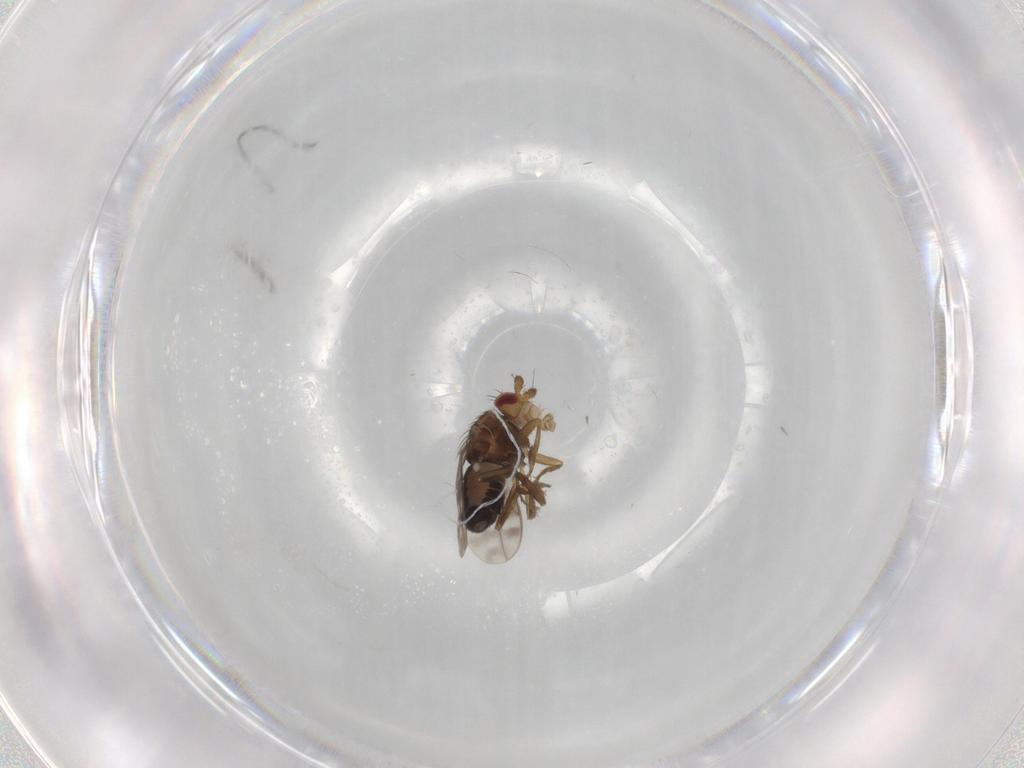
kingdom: Animalia
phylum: Arthropoda
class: Insecta
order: Diptera
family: Sphaeroceridae
